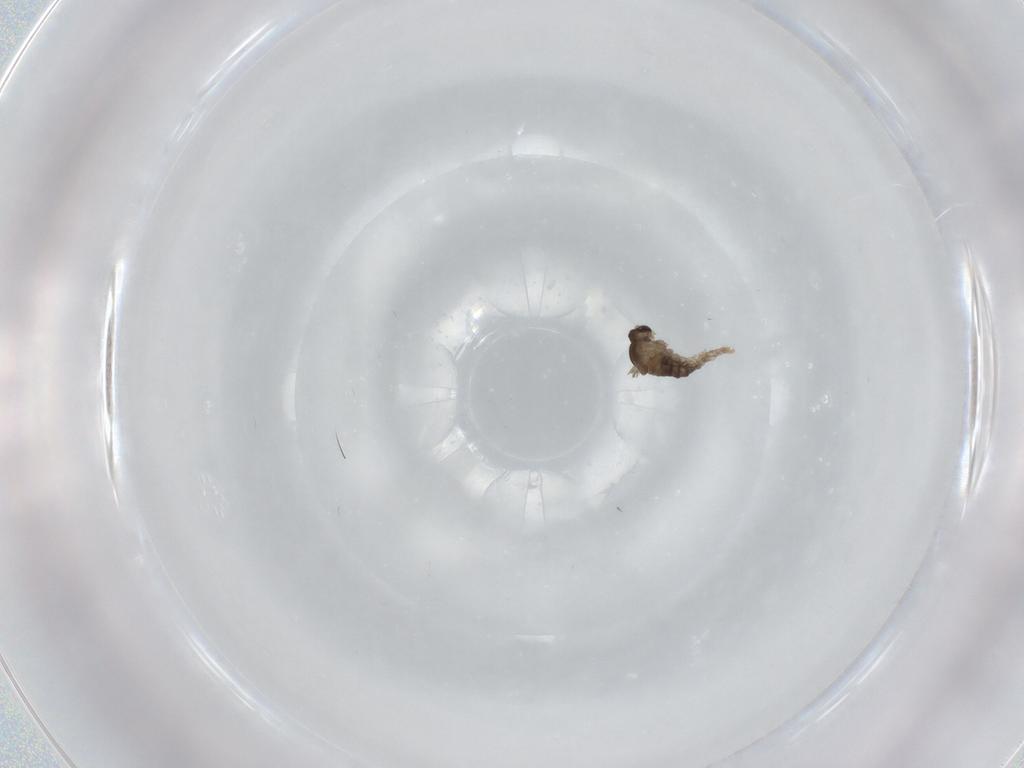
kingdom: Animalia
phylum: Arthropoda
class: Insecta
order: Diptera
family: Cecidomyiidae
